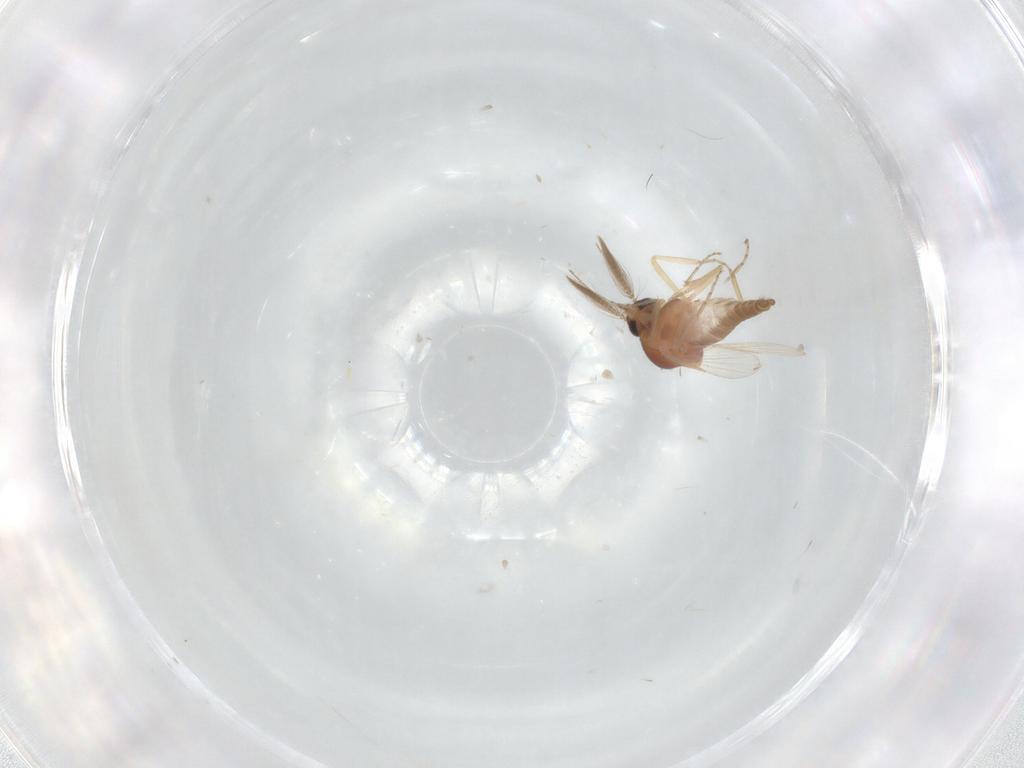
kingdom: Animalia
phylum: Arthropoda
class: Insecta
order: Diptera
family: Ceratopogonidae
